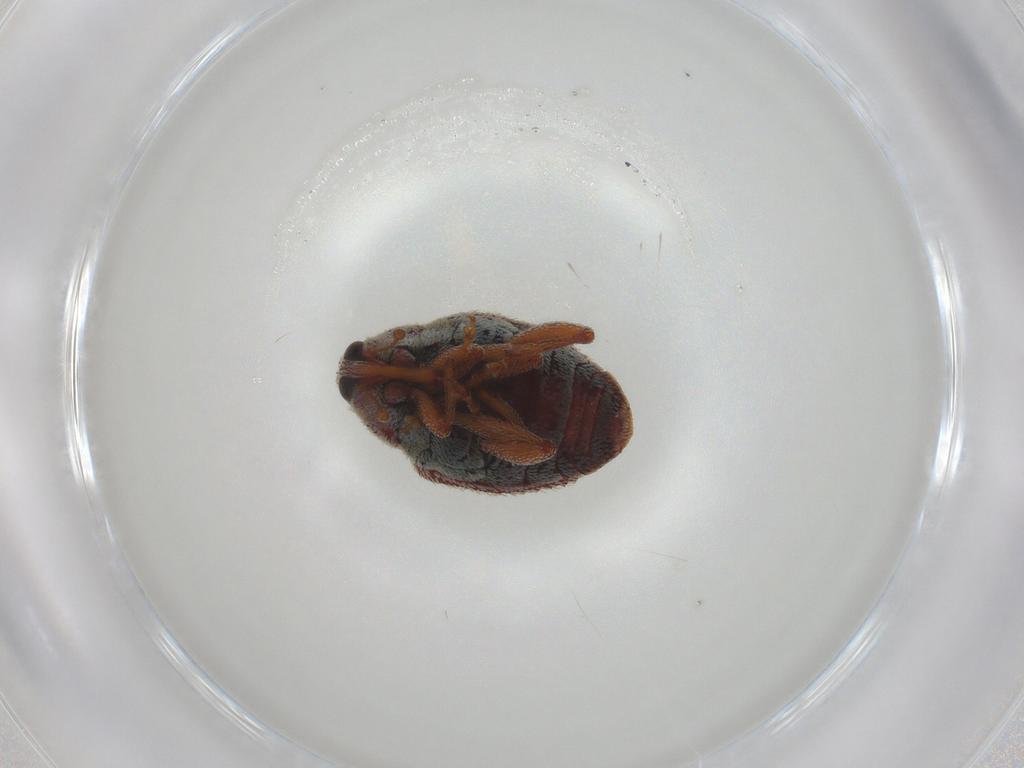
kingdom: Animalia
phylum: Arthropoda
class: Insecta
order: Coleoptera
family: Curculionidae
